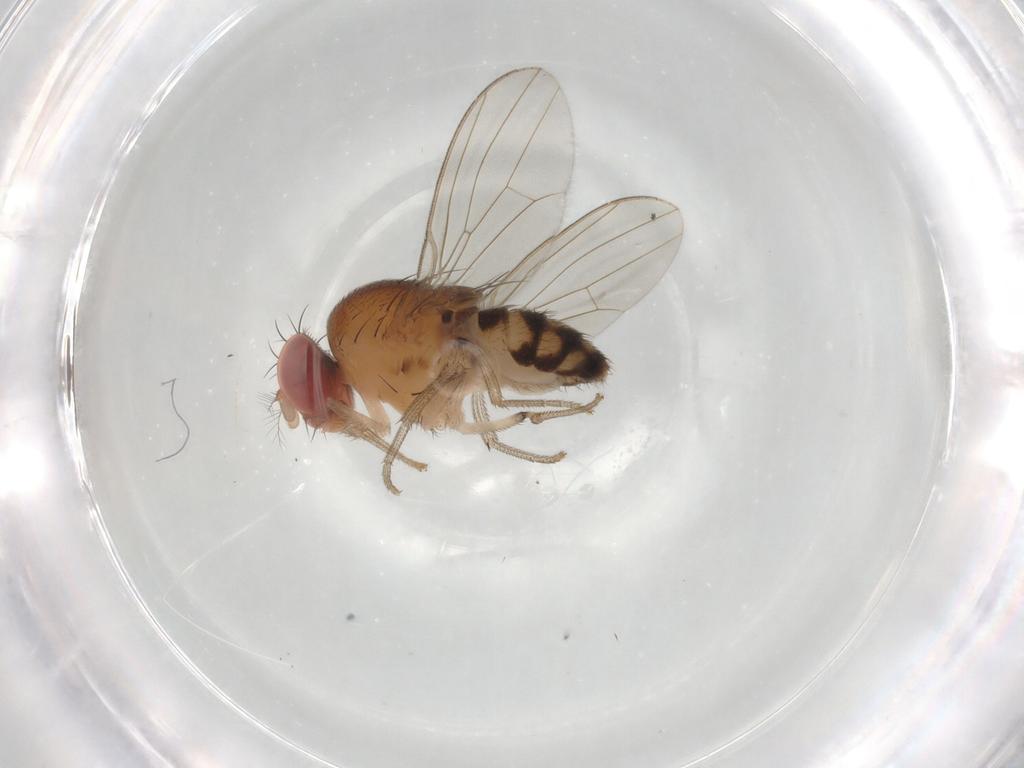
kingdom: Animalia
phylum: Arthropoda
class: Insecta
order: Diptera
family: Drosophilidae
